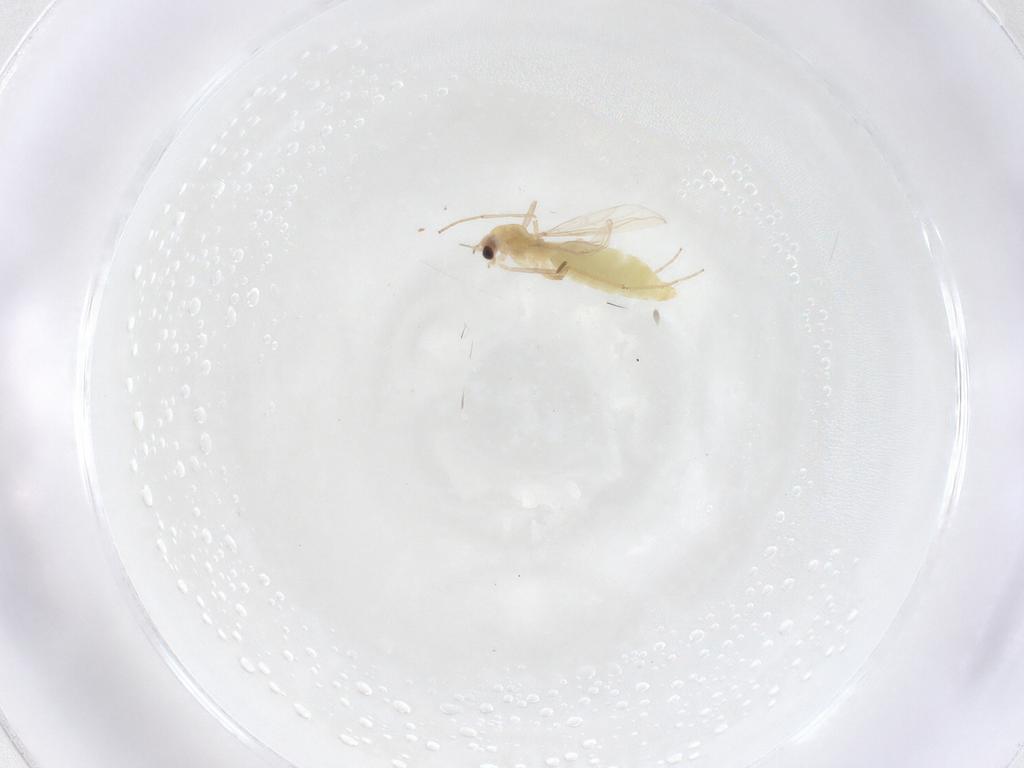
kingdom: Animalia
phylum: Arthropoda
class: Insecta
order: Diptera
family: Chironomidae
